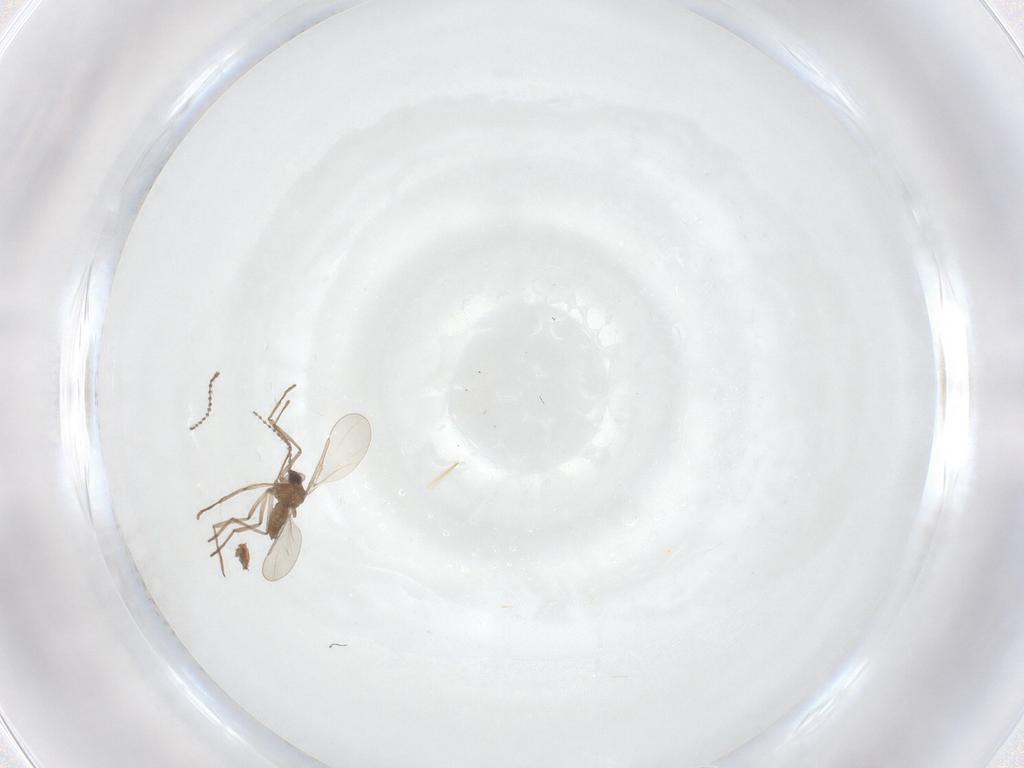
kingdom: Animalia
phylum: Arthropoda
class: Insecta
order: Diptera
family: Cecidomyiidae
